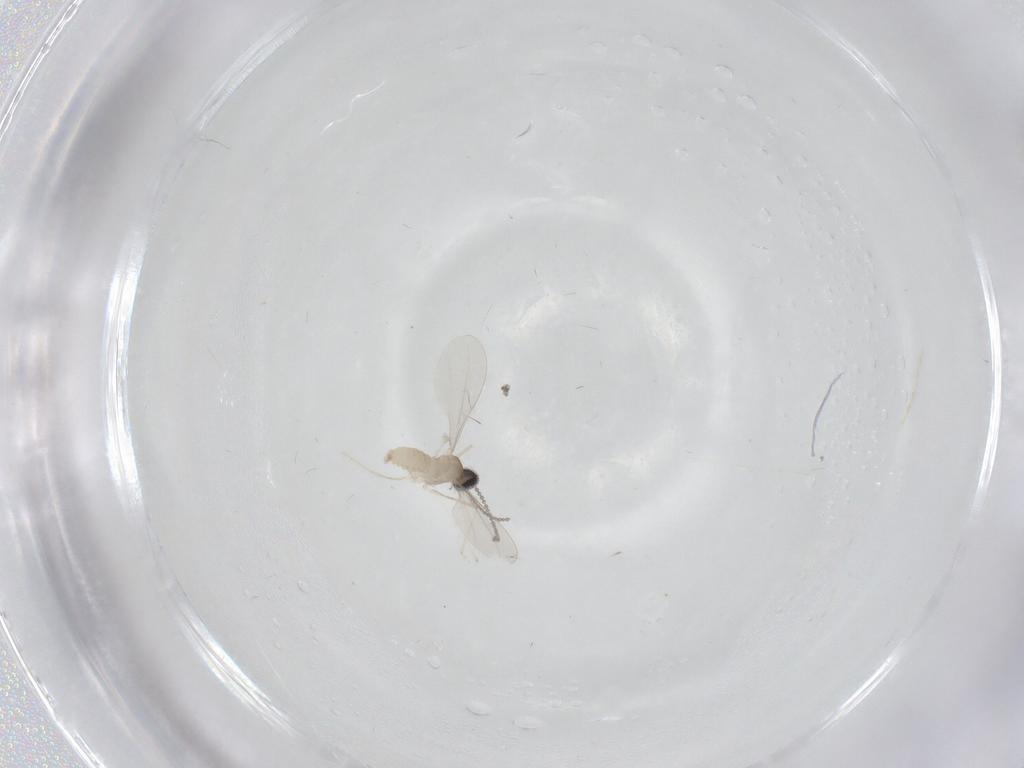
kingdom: Animalia
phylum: Arthropoda
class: Insecta
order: Diptera
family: Cecidomyiidae
